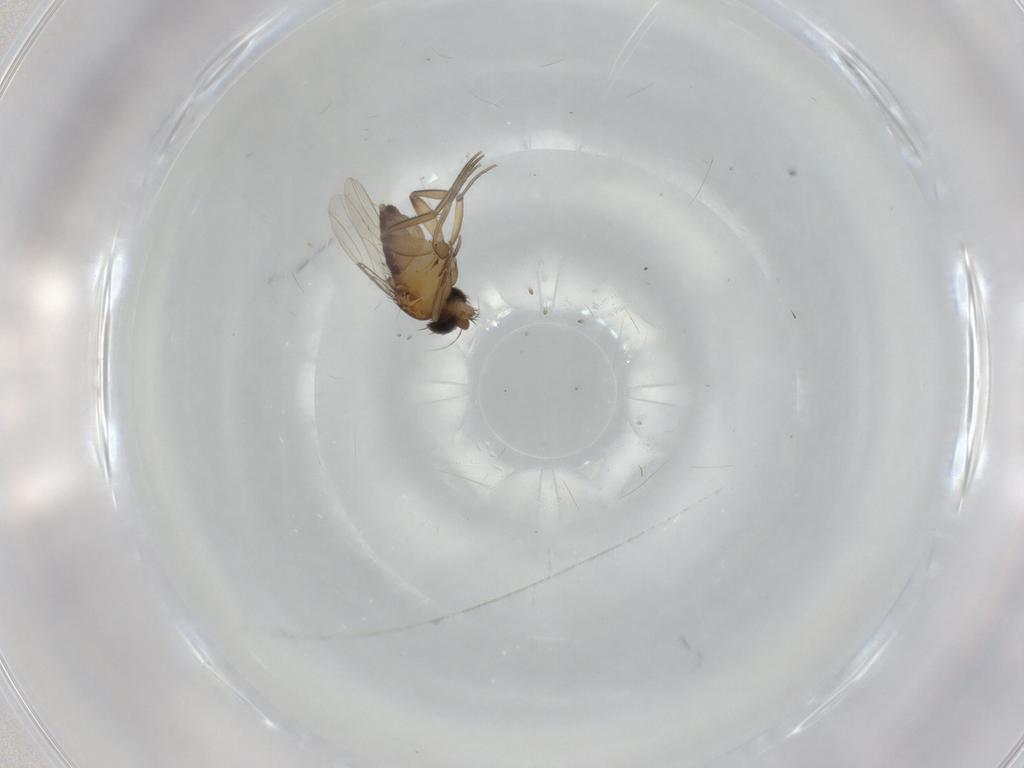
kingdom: Animalia
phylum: Arthropoda
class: Insecta
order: Diptera
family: Phoridae
